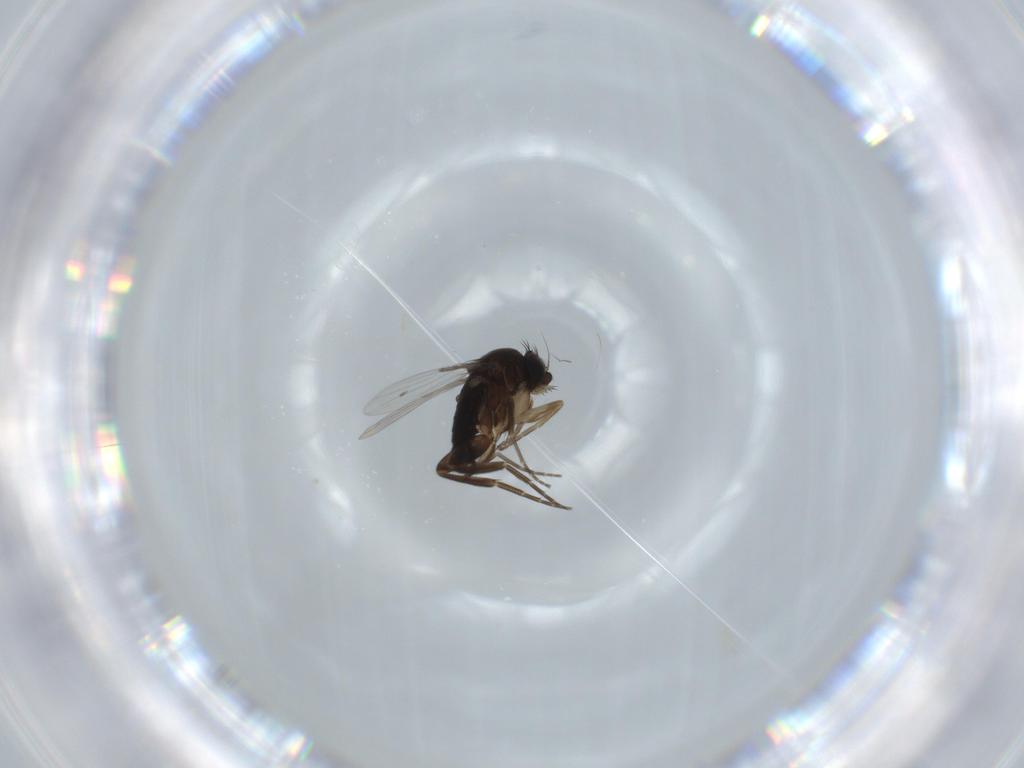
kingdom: Animalia
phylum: Arthropoda
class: Insecta
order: Diptera
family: Phoridae
